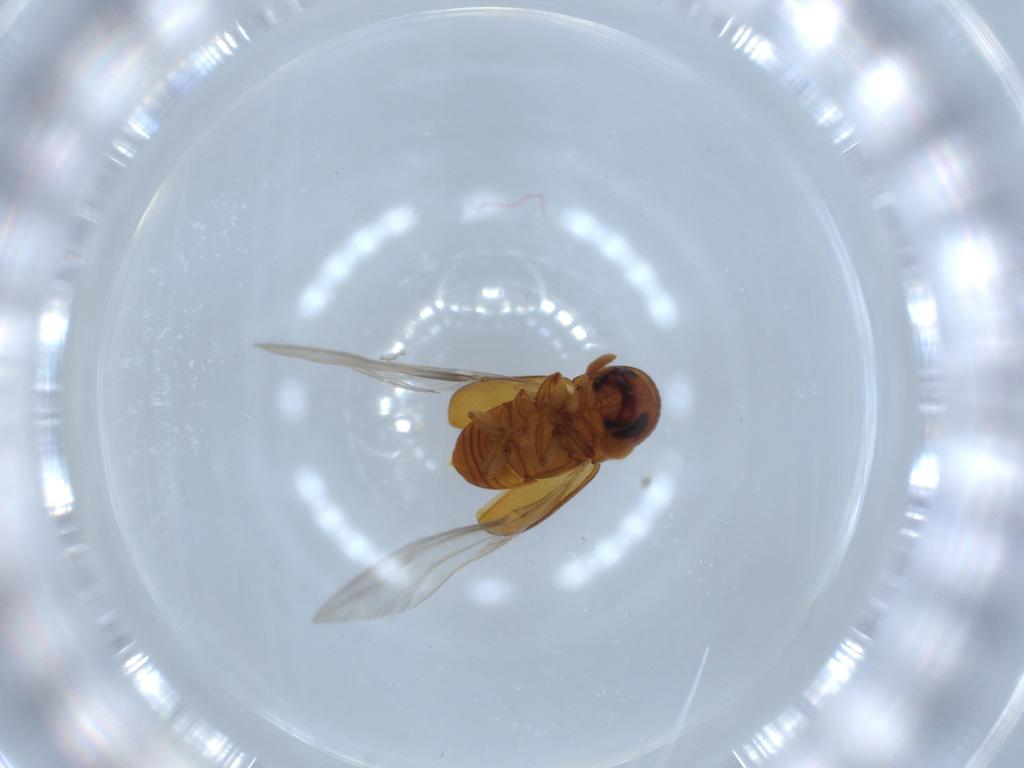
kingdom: Animalia
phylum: Arthropoda
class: Insecta
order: Coleoptera
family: Curculionidae
